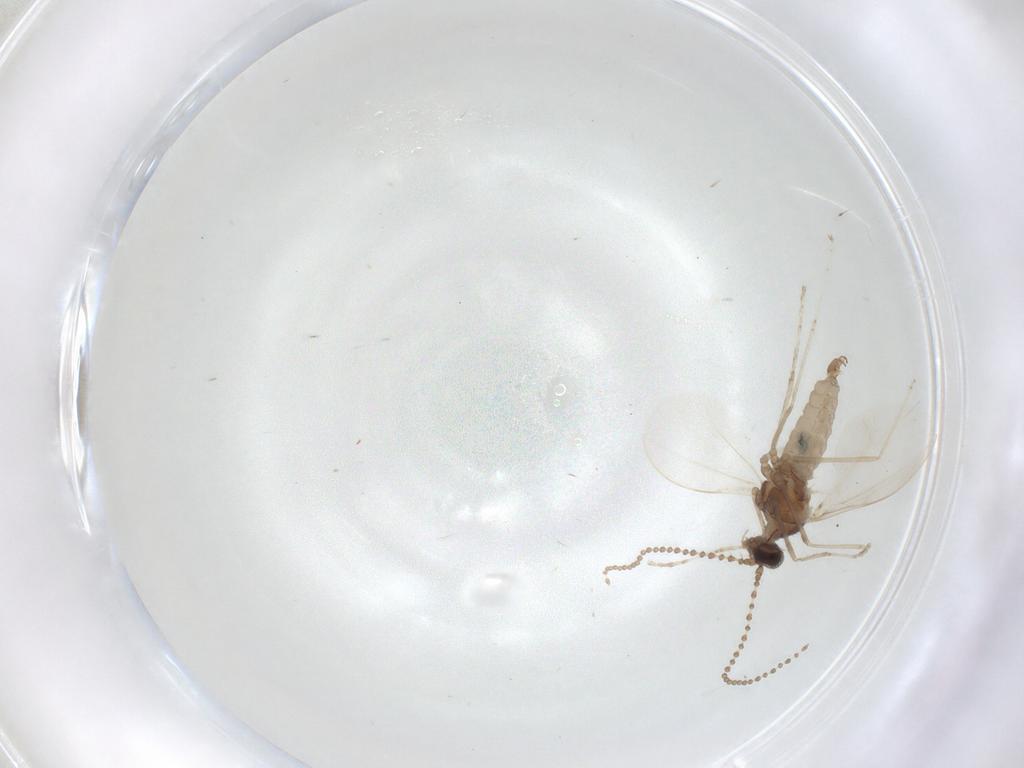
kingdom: Animalia
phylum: Arthropoda
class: Insecta
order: Diptera
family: Cecidomyiidae
